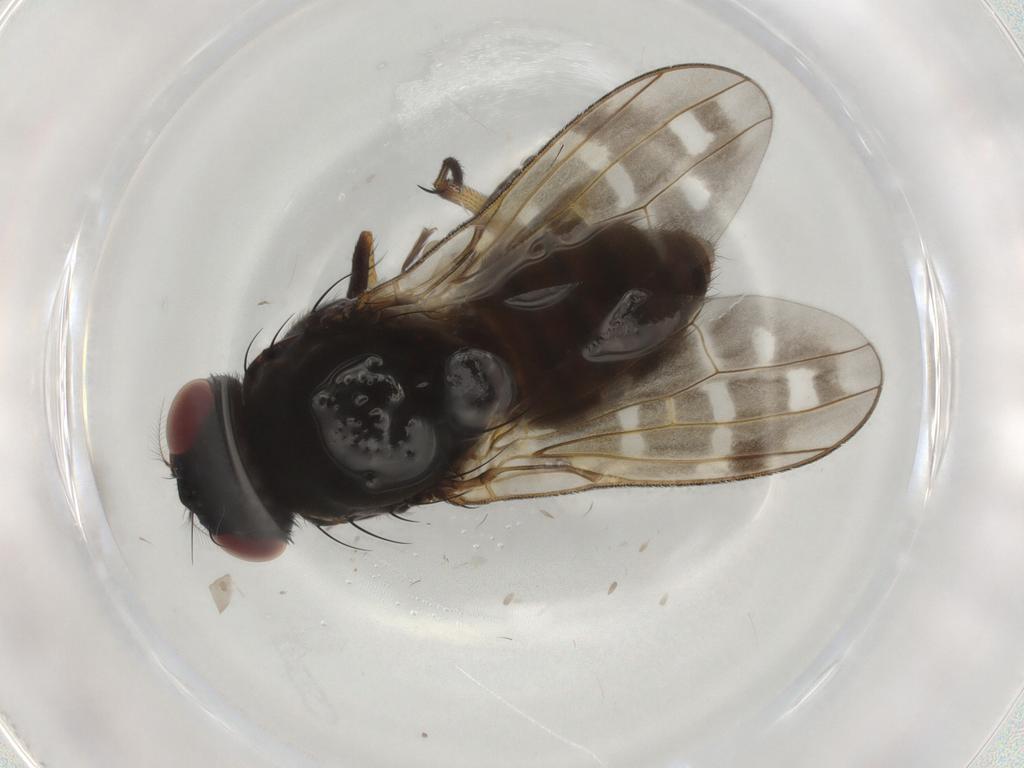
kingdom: Animalia
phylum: Arthropoda
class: Insecta
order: Diptera
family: Lauxaniidae
